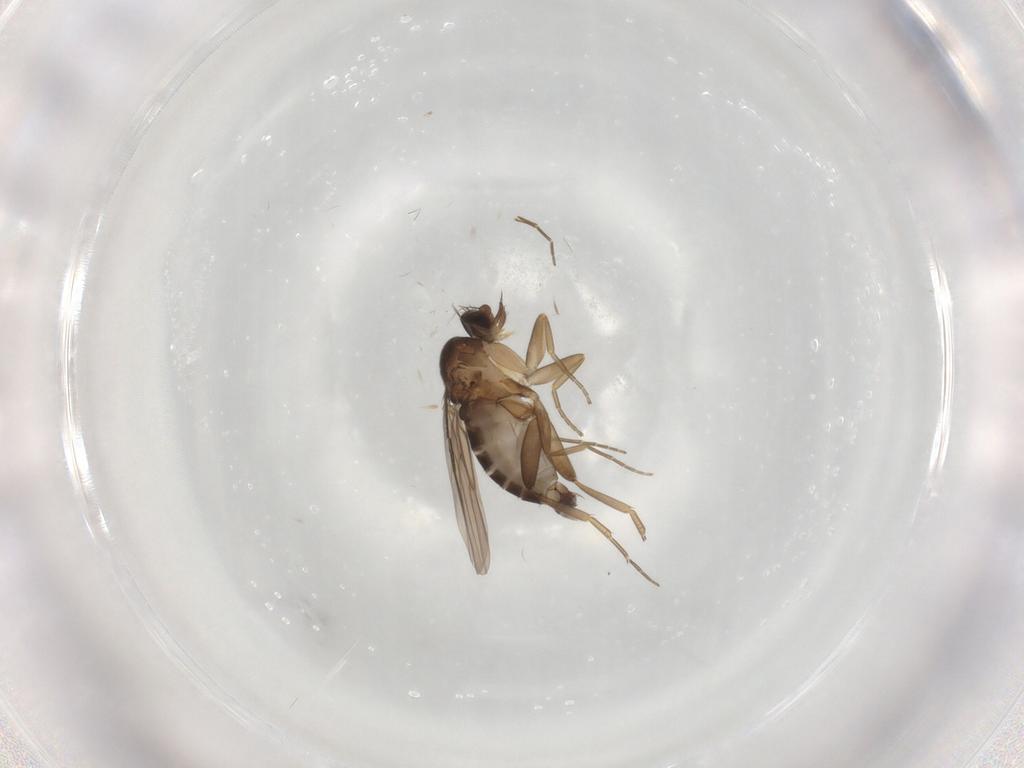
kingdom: Animalia
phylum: Arthropoda
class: Insecta
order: Diptera
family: Phoridae
